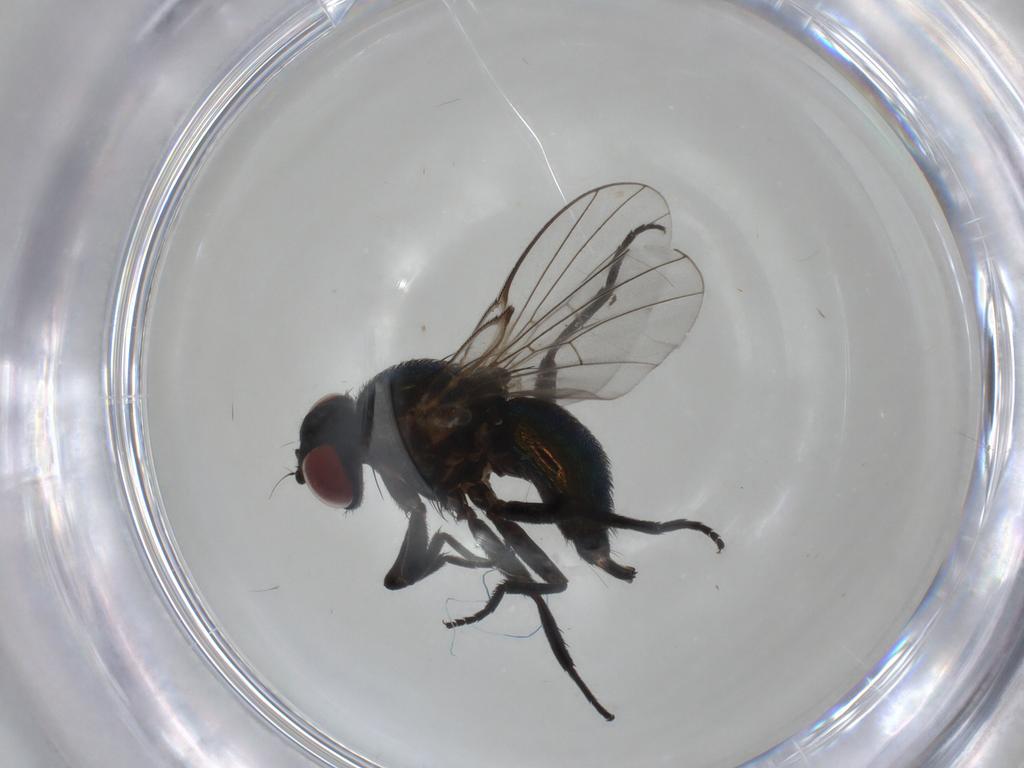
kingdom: Animalia
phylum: Arthropoda
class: Insecta
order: Diptera
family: Agromyzidae
